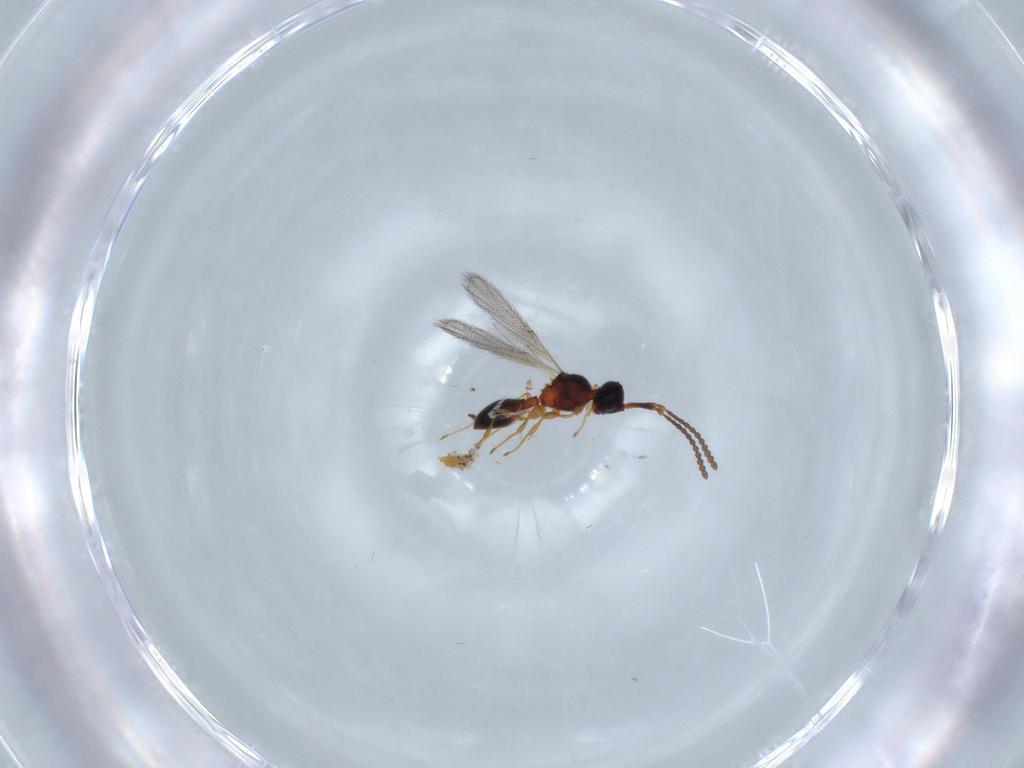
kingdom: Animalia
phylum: Arthropoda
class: Insecta
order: Hymenoptera
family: Diapriidae
